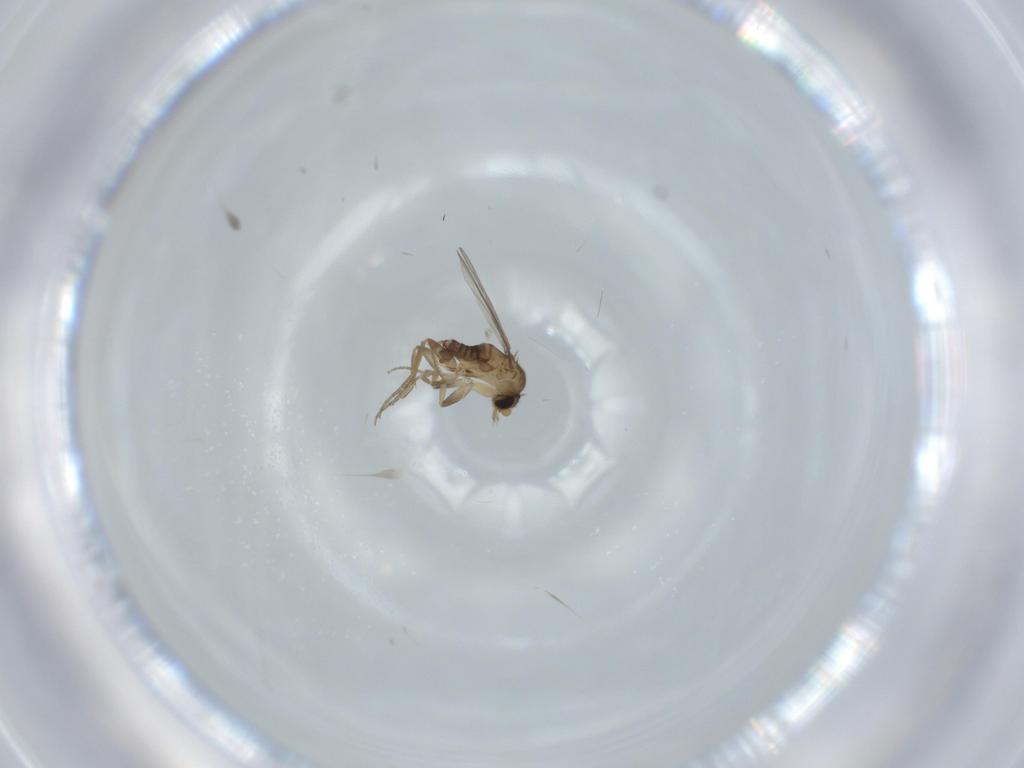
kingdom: Animalia
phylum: Arthropoda
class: Insecta
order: Diptera
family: Phoridae
